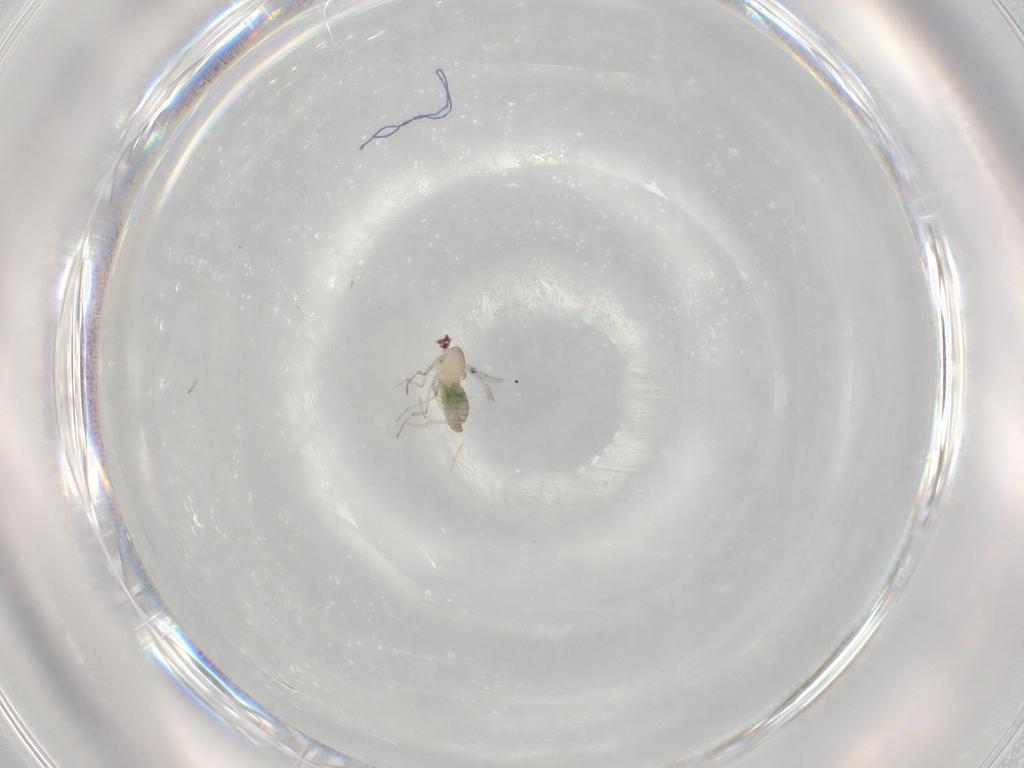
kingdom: Animalia
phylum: Arthropoda
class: Insecta
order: Diptera
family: Cecidomyiidae
